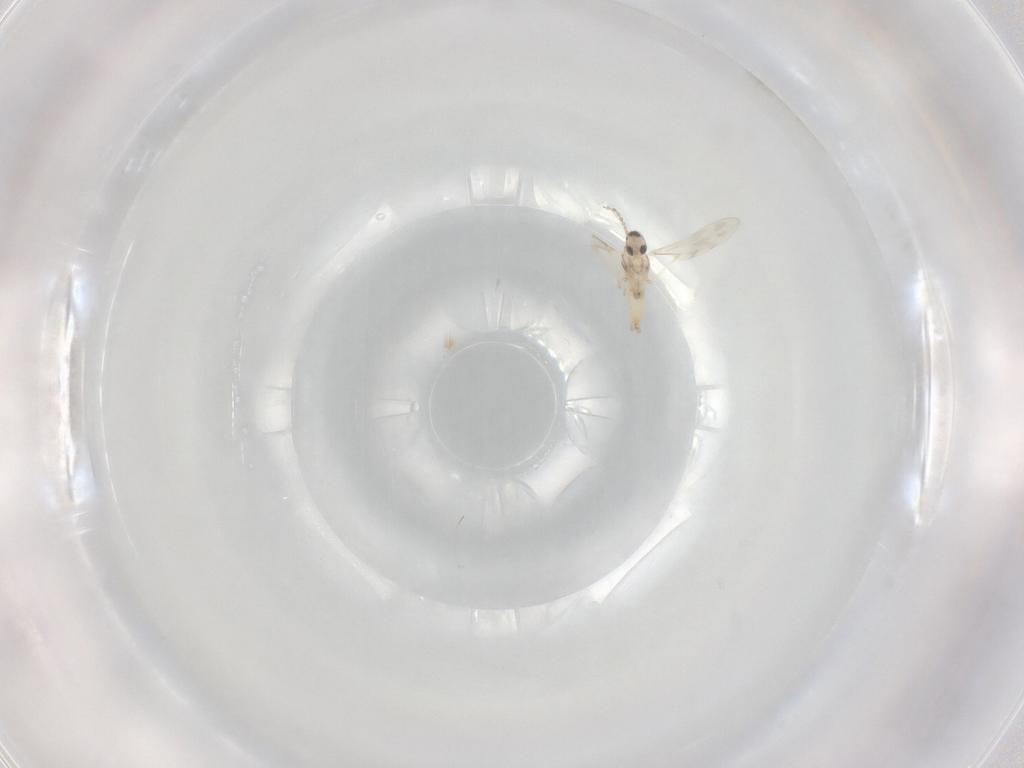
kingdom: Animalia
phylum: Arthropoda
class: Insecta
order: Diptera
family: Cecidomyiidae
